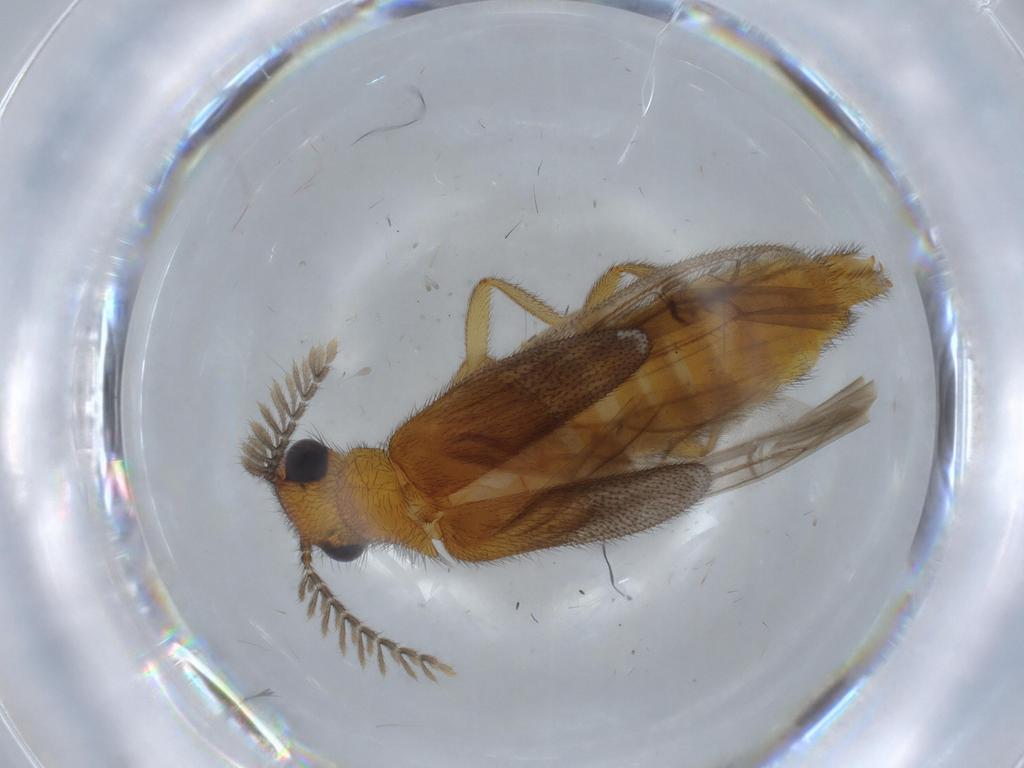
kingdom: Animalia
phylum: Arthropoda
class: Insecta
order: Coleoptera
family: Phengodidae
